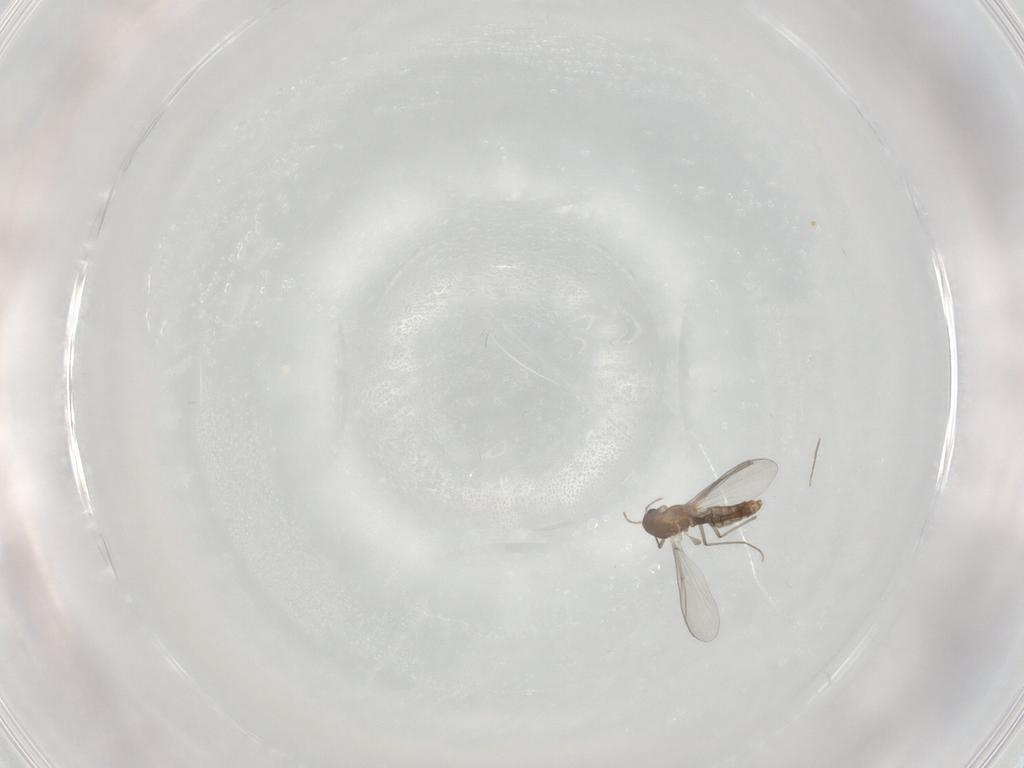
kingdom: Animalia
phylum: Arthropoda
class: Insecta
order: Diptera
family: Chironomidae
